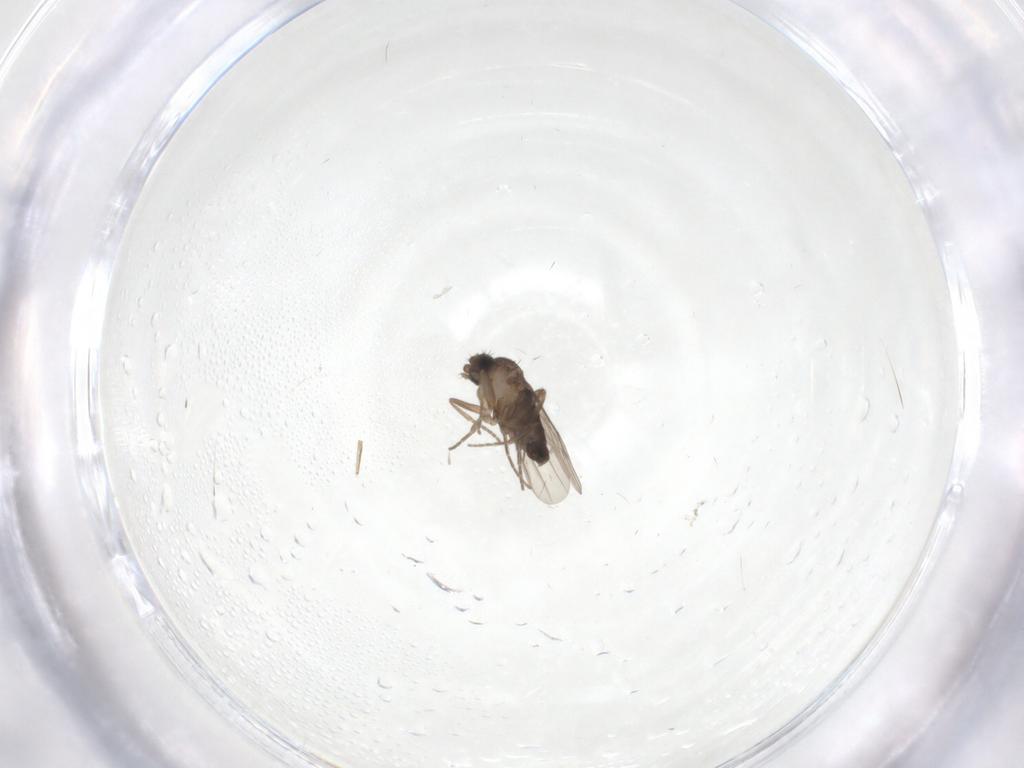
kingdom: Animalia
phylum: Arthropoda
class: Insecta
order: Diptera
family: Phoridae
